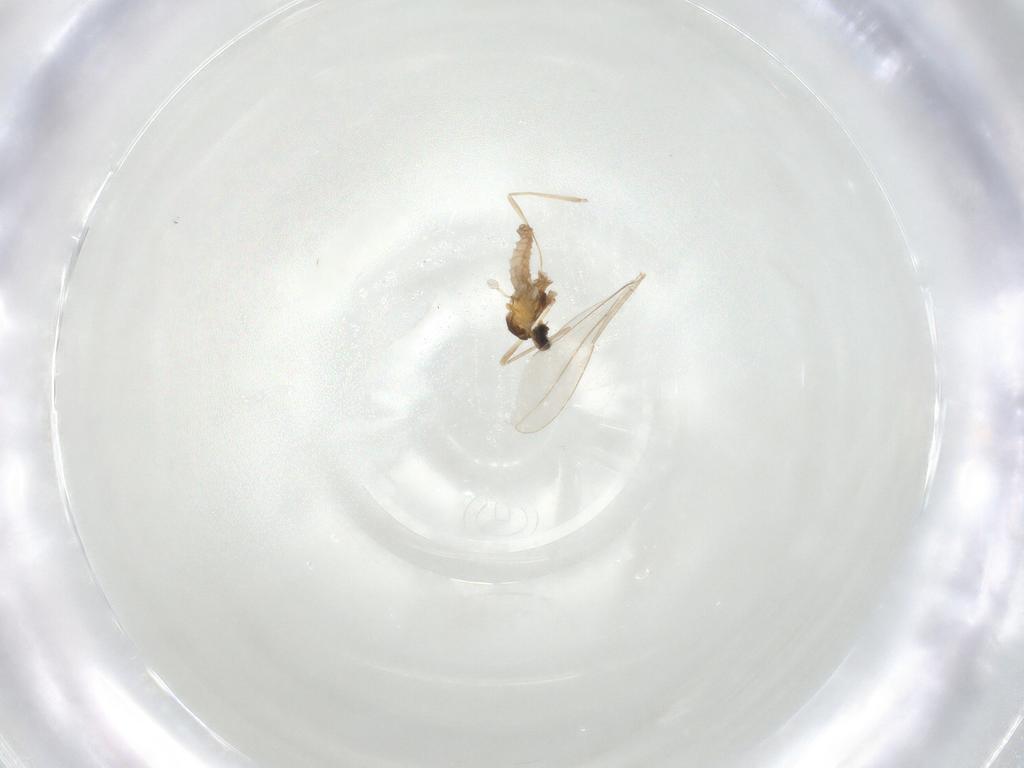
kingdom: Animalia
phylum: Arthropoda
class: Insecta
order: Diptera
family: Cecidomyiidae
